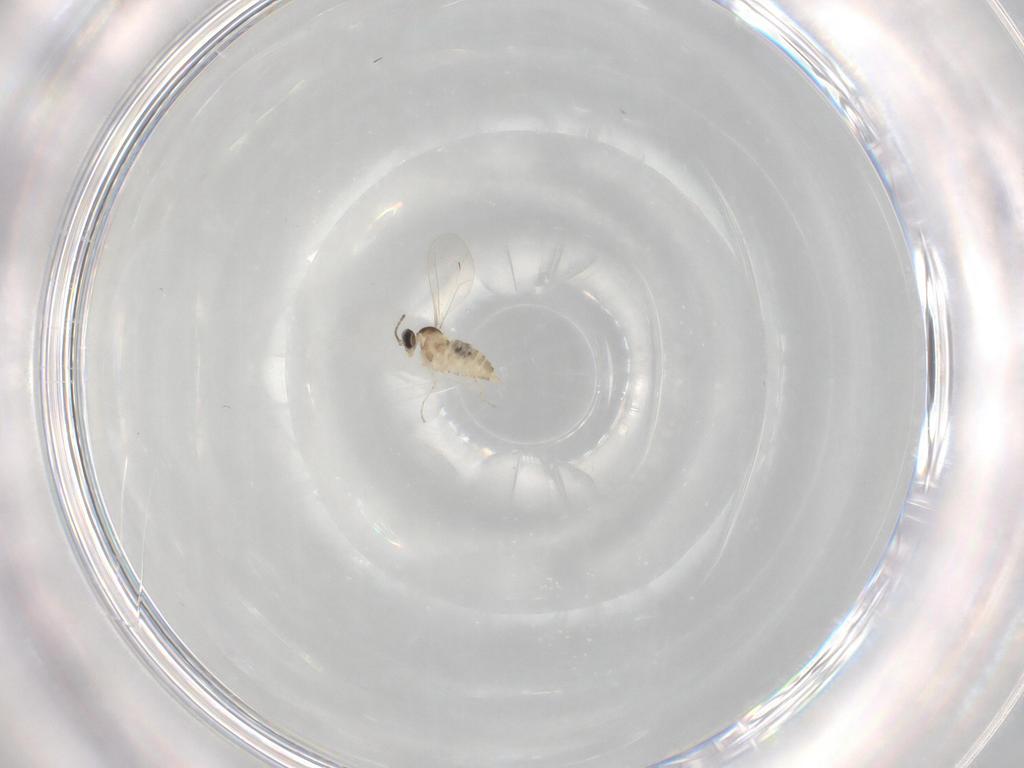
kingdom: Animalia
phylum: Arthropoda
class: Insecta
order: Diptera
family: Cecidomyiidae
